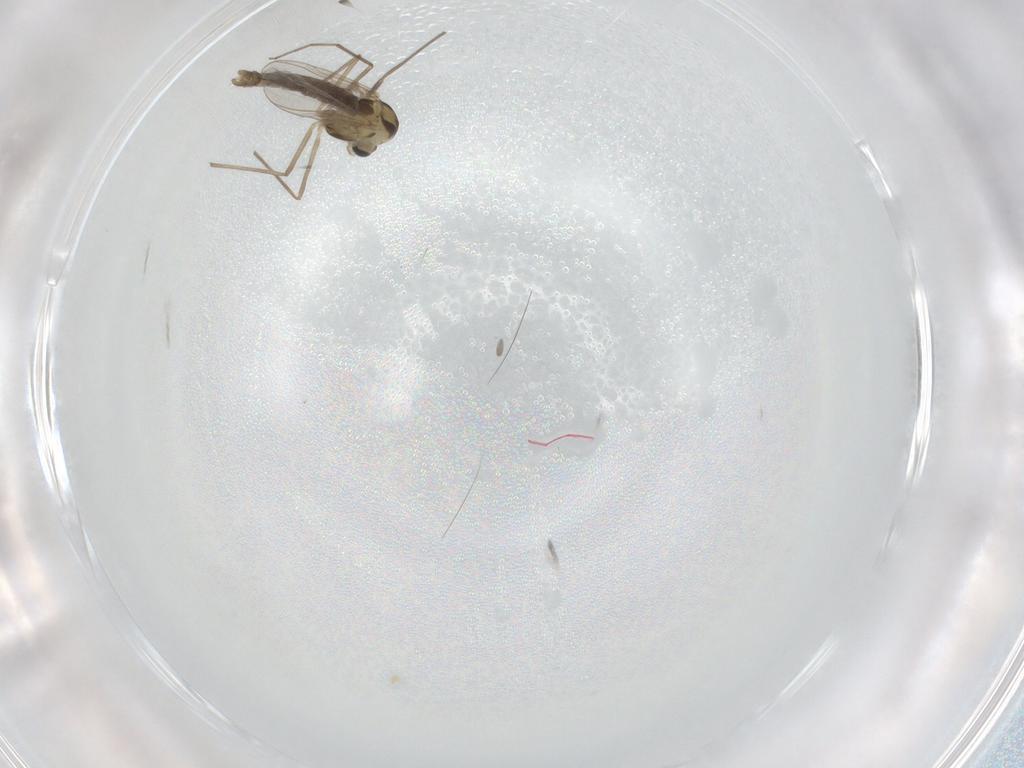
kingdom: Animalia
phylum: Arthropoda
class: Insecta
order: Diptera
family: Chironomidae
